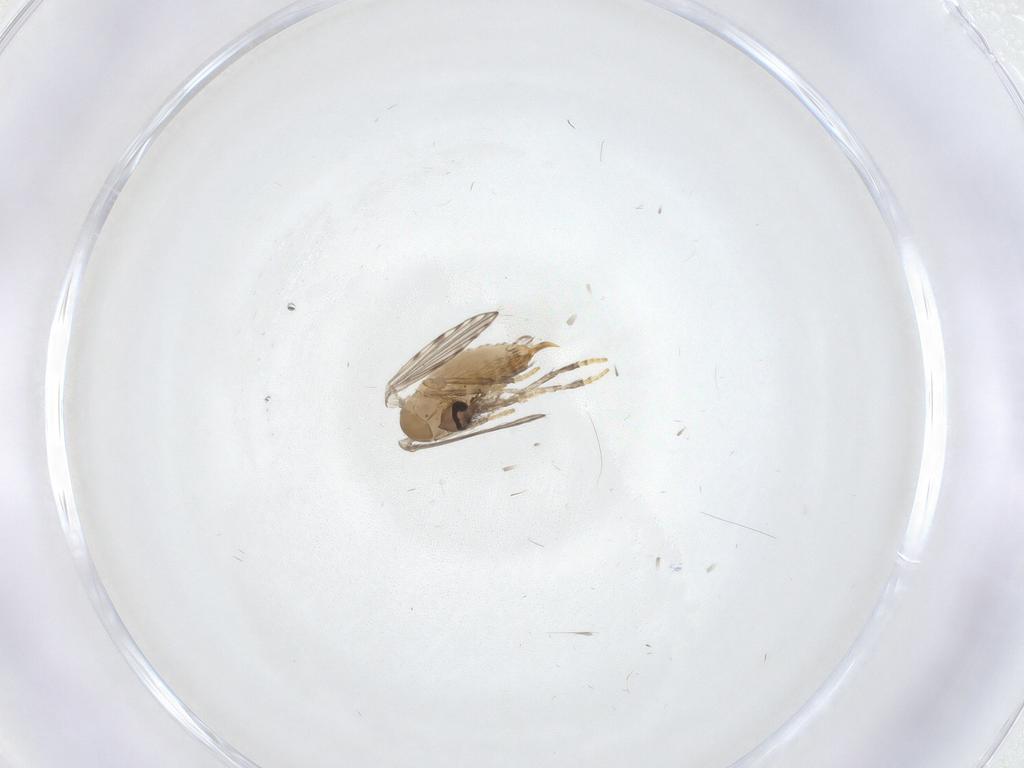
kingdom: Animalia
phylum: Arthropoda
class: Insecta
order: Diptera
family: Psychodidae
